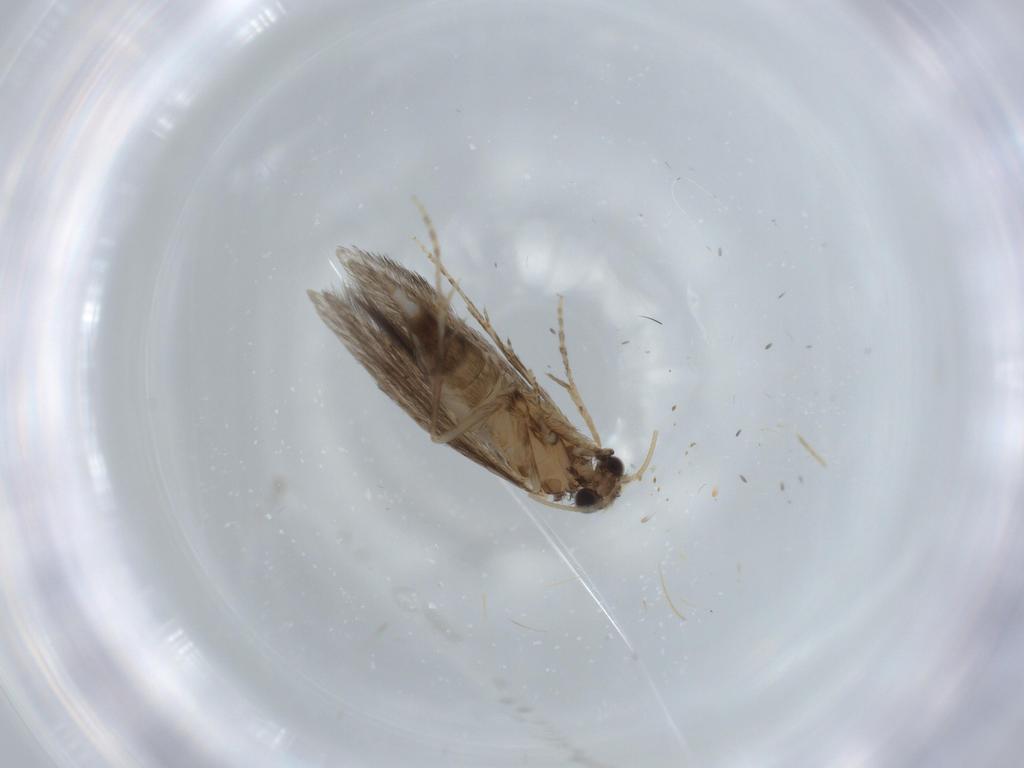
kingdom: Animalia
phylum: Arthropoda
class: Insecta
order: Trichoptera
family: Hydroptilidae
